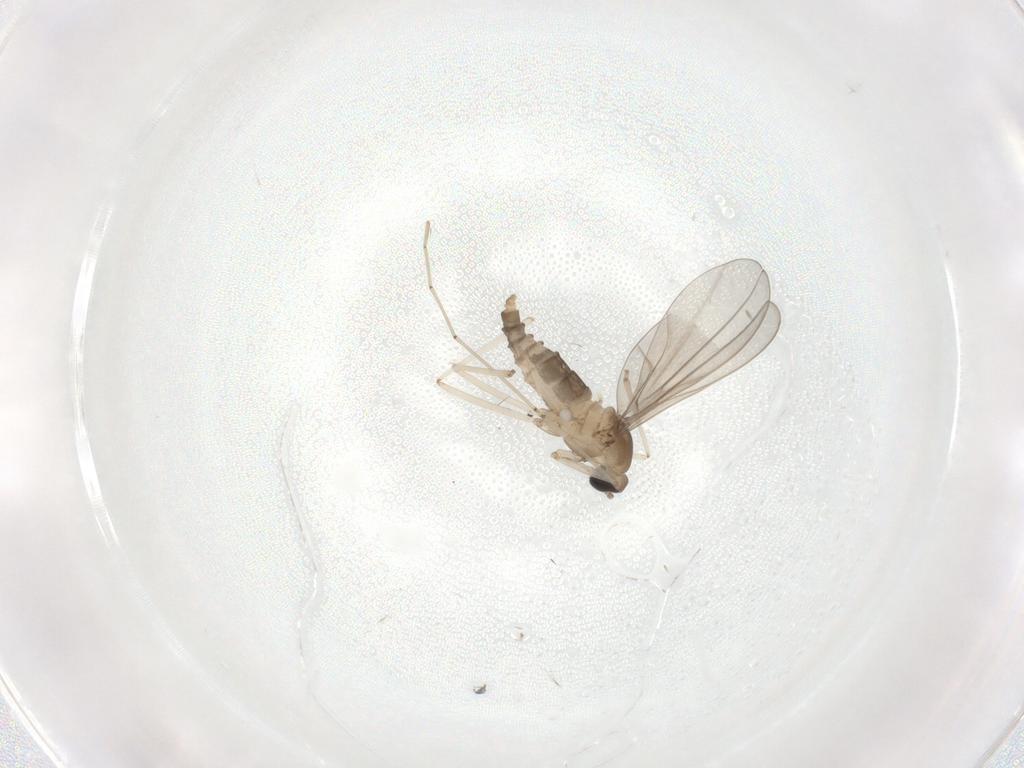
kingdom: Animalia
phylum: Arthropoda
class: Insecta
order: Diptera
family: Cecidomyiidae
